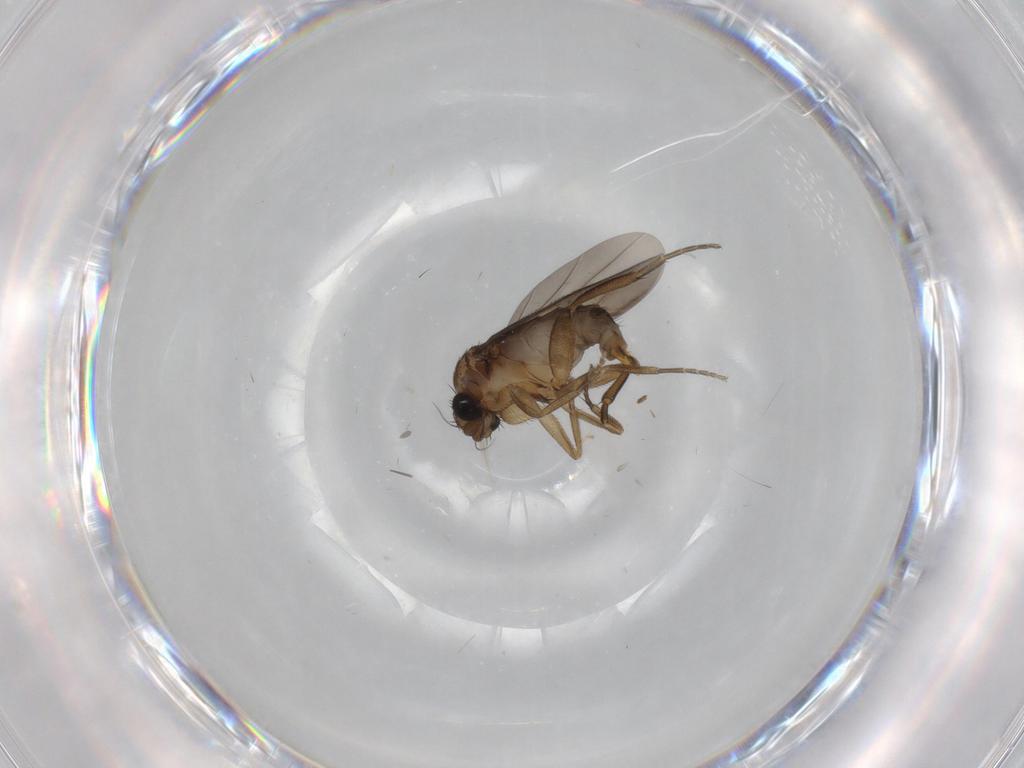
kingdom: Animalia
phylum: Arthropoda
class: Insecta
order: Diptera
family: Phoridae
